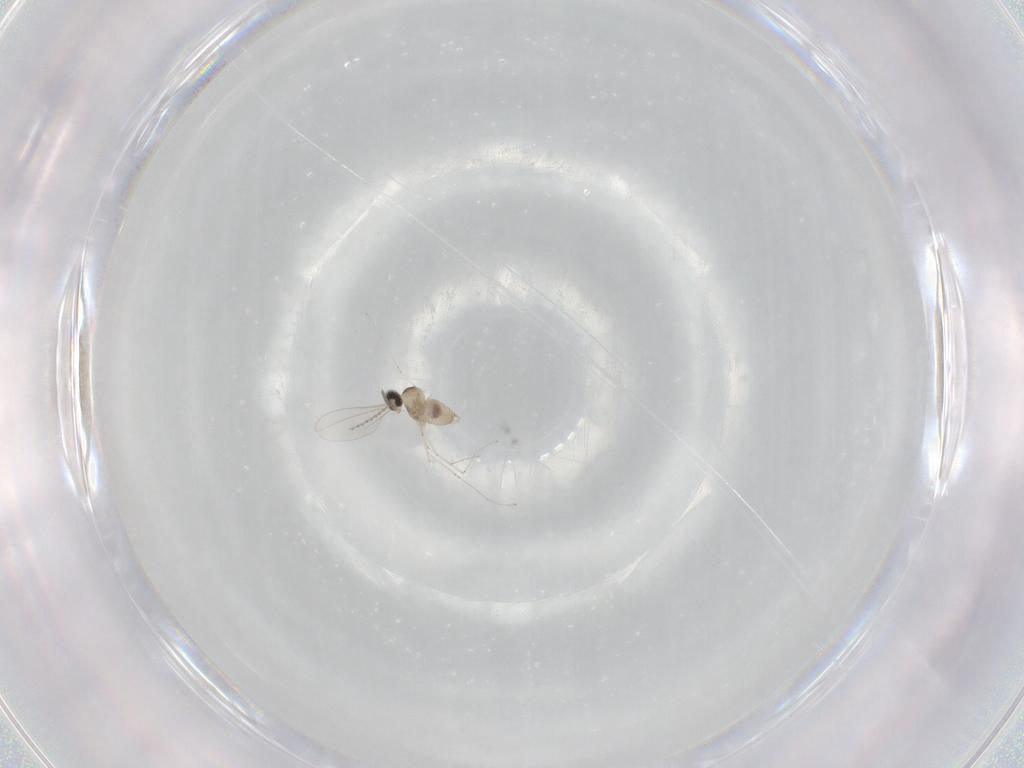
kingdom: Animalia
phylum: Arthropoda
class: Insecta
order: Diptera
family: Cecidomyiidae
